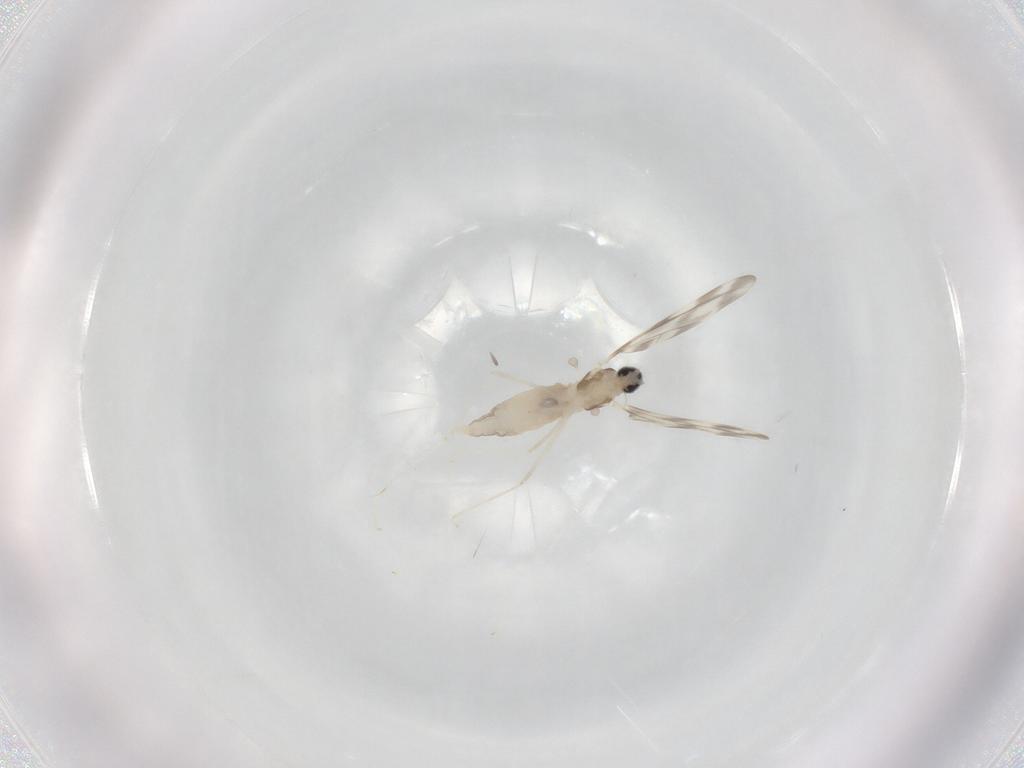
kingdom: Animalia
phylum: Arthropoda
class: Insecta
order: Diptera
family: Cecidomyiidae
